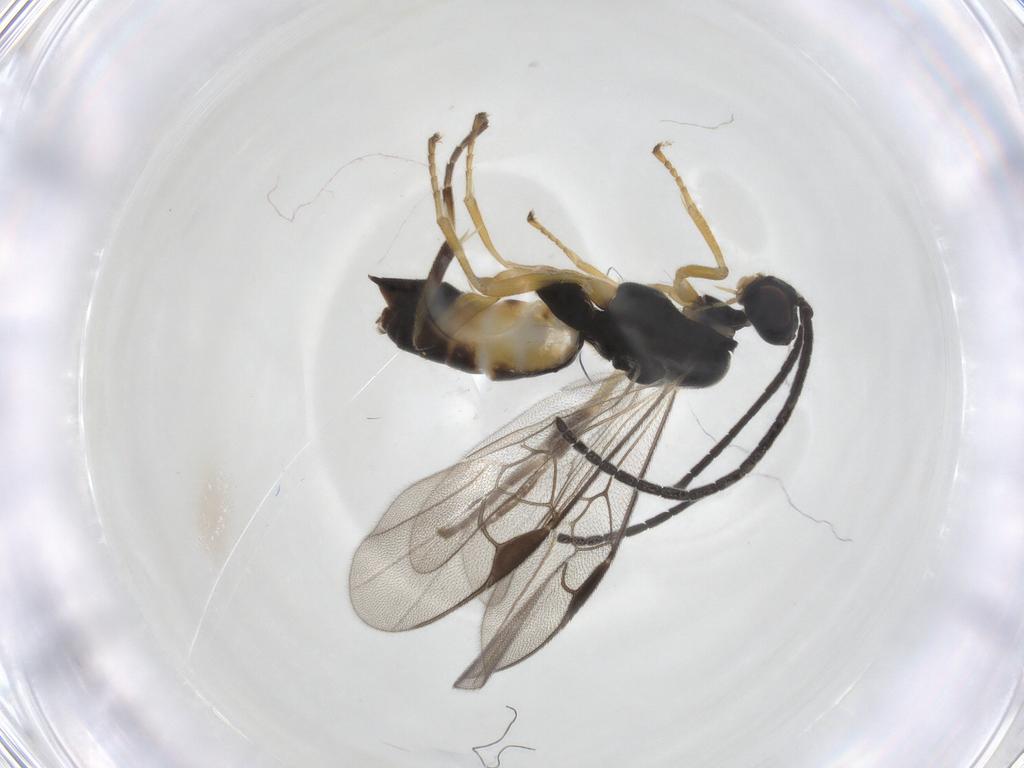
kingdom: Animalia
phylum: Arthropoda
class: Insecta
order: Hymenoptera
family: Braconidae
